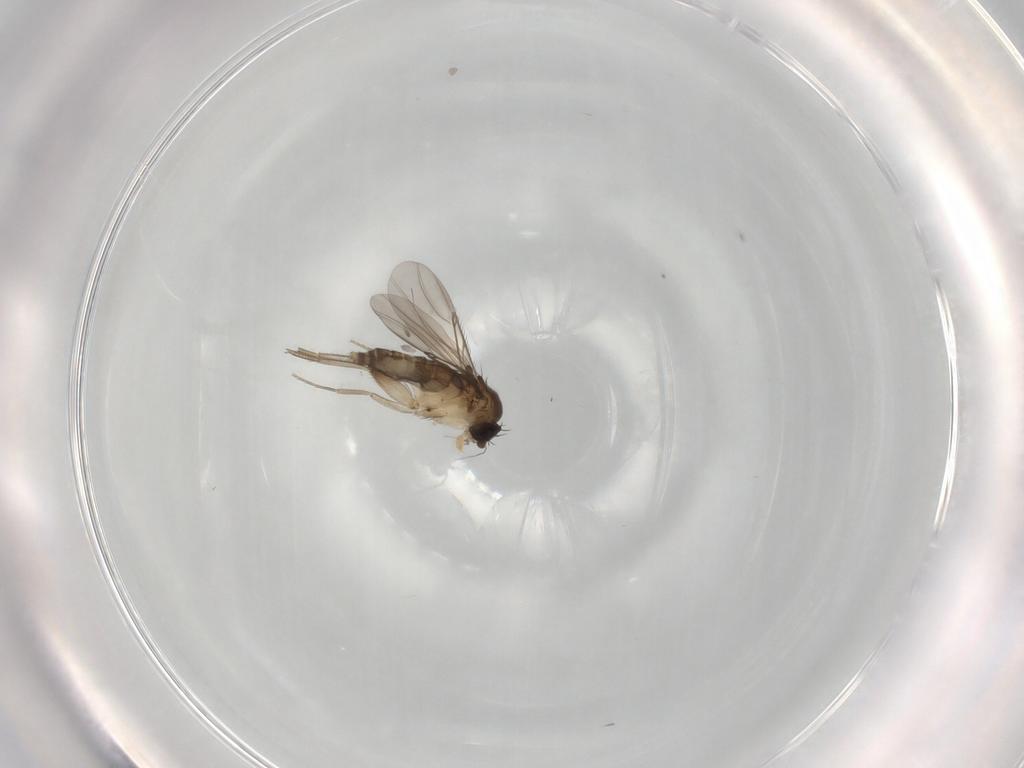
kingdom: Animalia
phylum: Arthropoda
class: Insecta
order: Diptera
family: Phoridae
